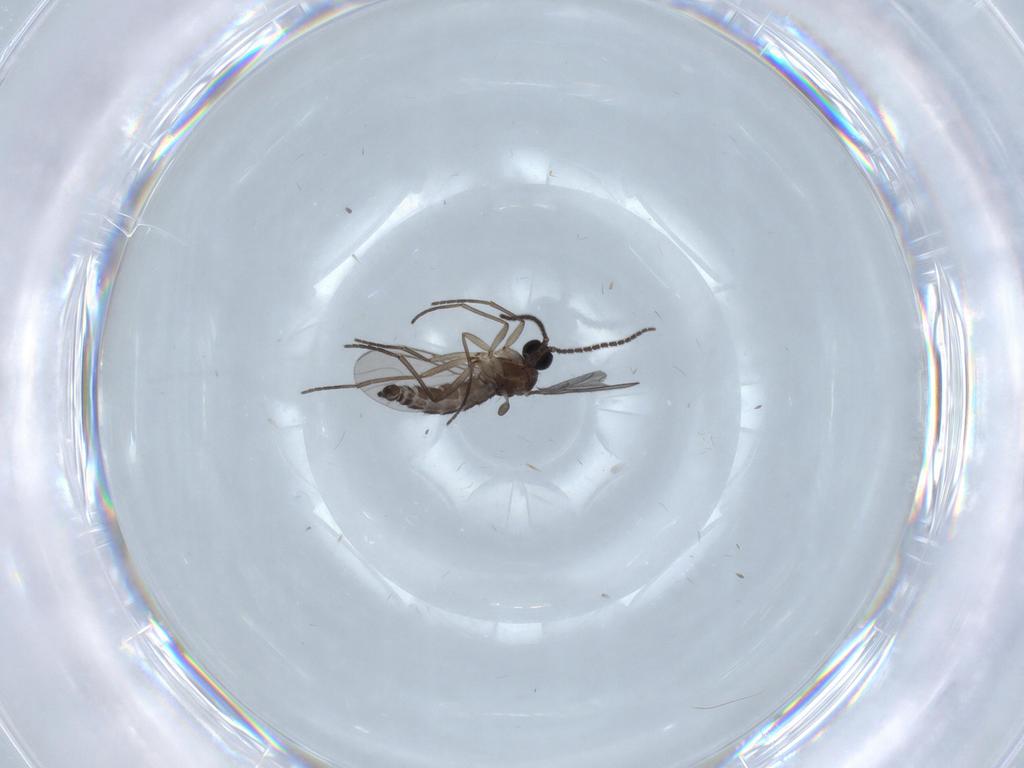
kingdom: Animalia
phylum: Arthropoda
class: Insecta
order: Diptera
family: Sciaridae
